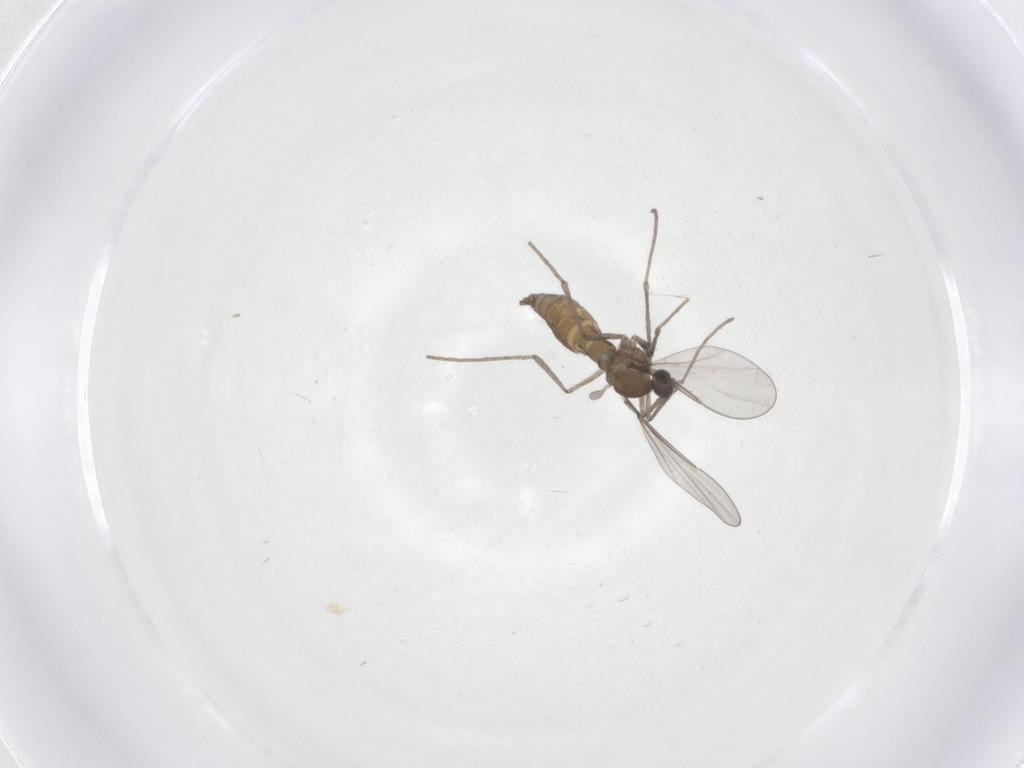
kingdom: Animalia
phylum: Arthropoda
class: Insecta
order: Diptera
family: Cecidomyiidae
